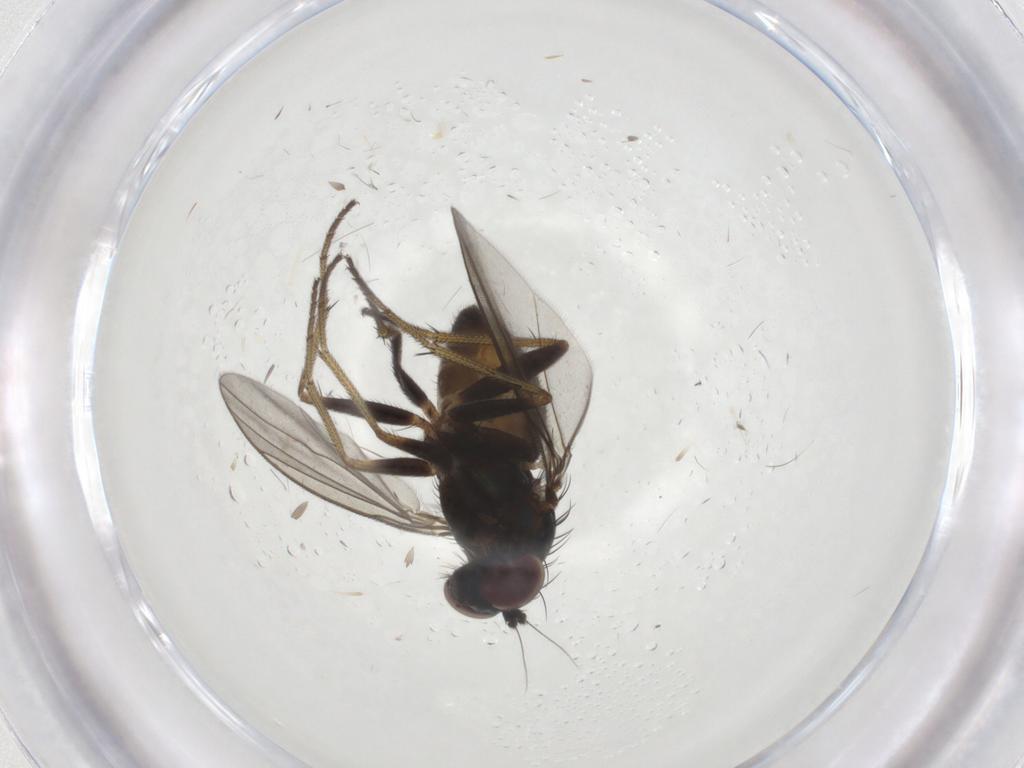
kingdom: Animalia
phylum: Arthropoda
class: Insecta
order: Diptera
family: Dolichopodidae
